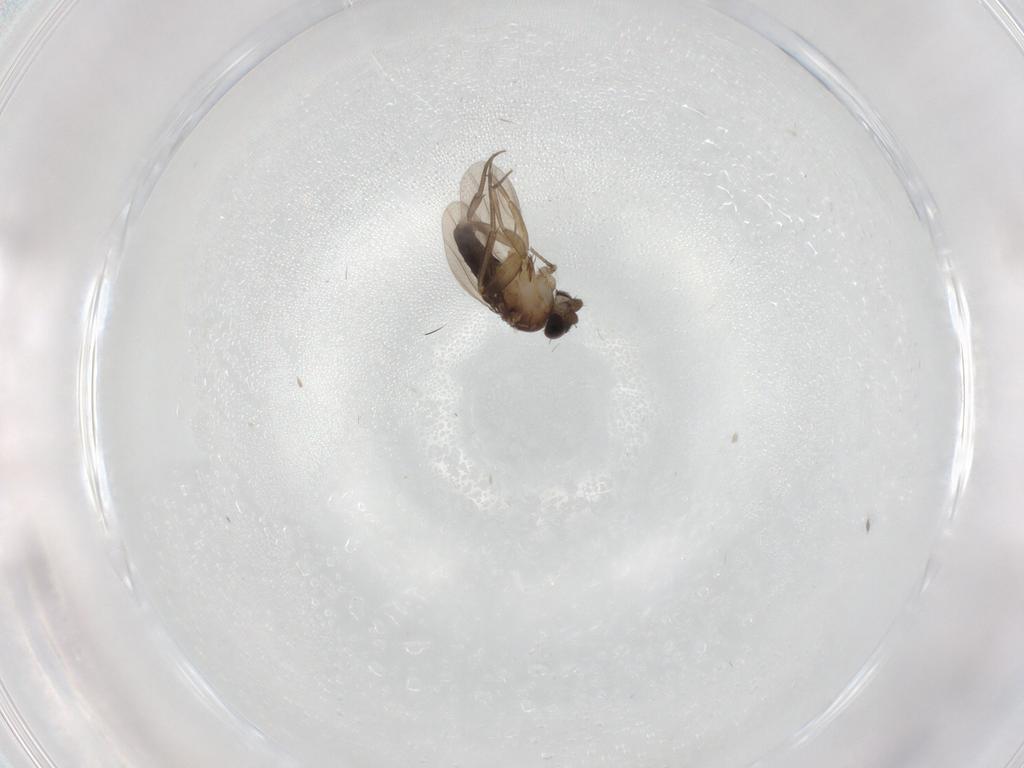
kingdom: Animalia
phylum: Arthropoda
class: Insecta
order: Diptera
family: Phoridae
